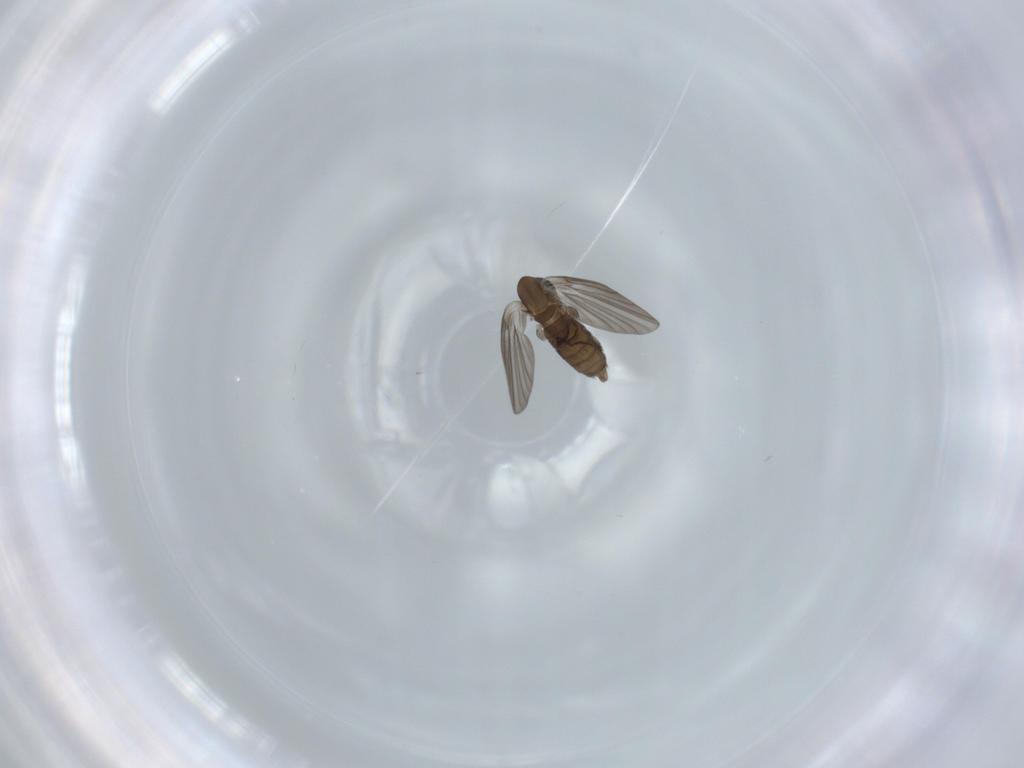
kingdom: Animalia
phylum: Arthropoda
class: Insecta
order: Diptera
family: Psychodidae
